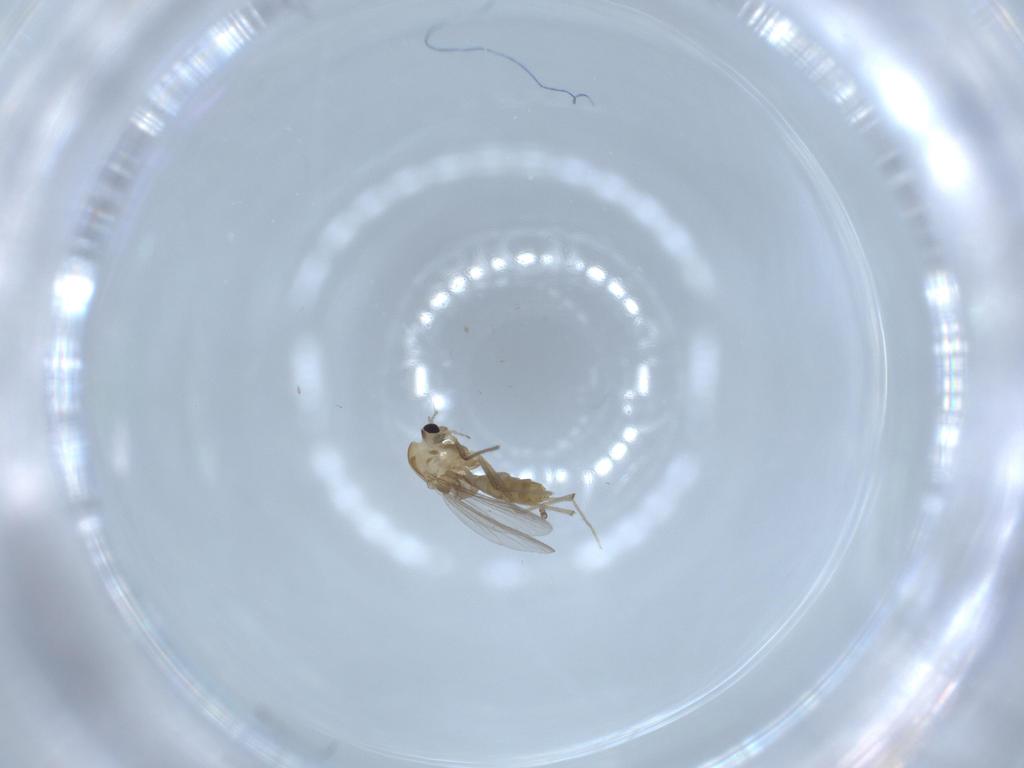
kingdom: Animalia
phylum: Arthropoda
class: Insecta
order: Diptera
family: Chironomidae
